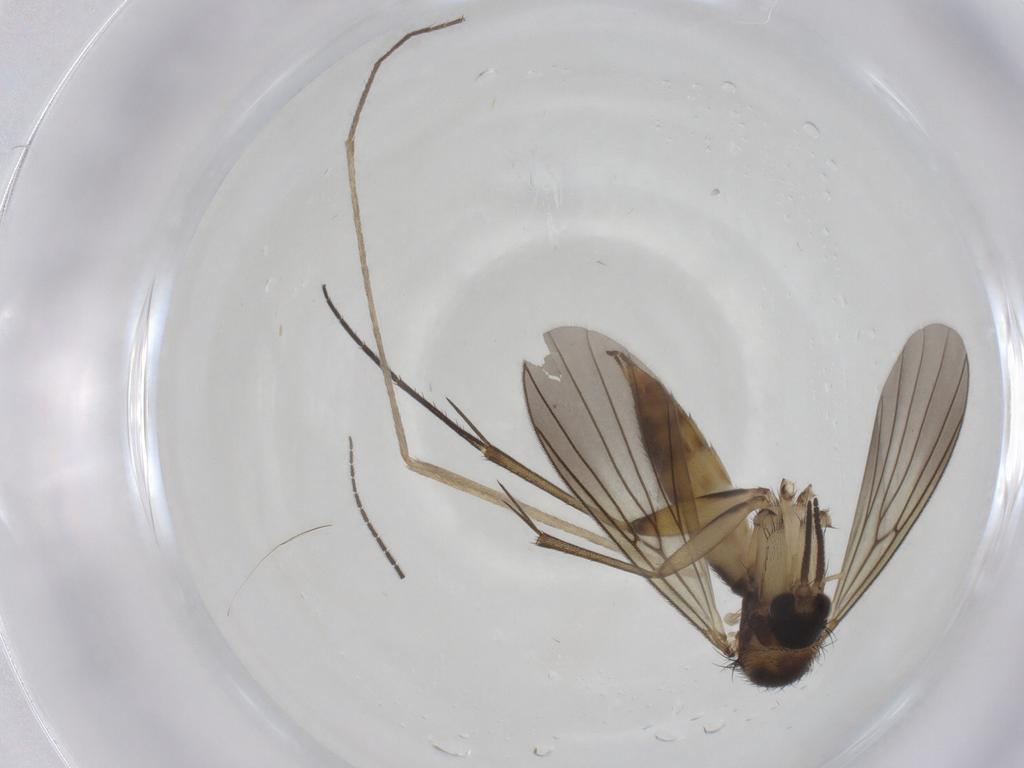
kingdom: Animalia
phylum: Arthropoda
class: Insecta
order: Diptera
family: Mycetophilidae
